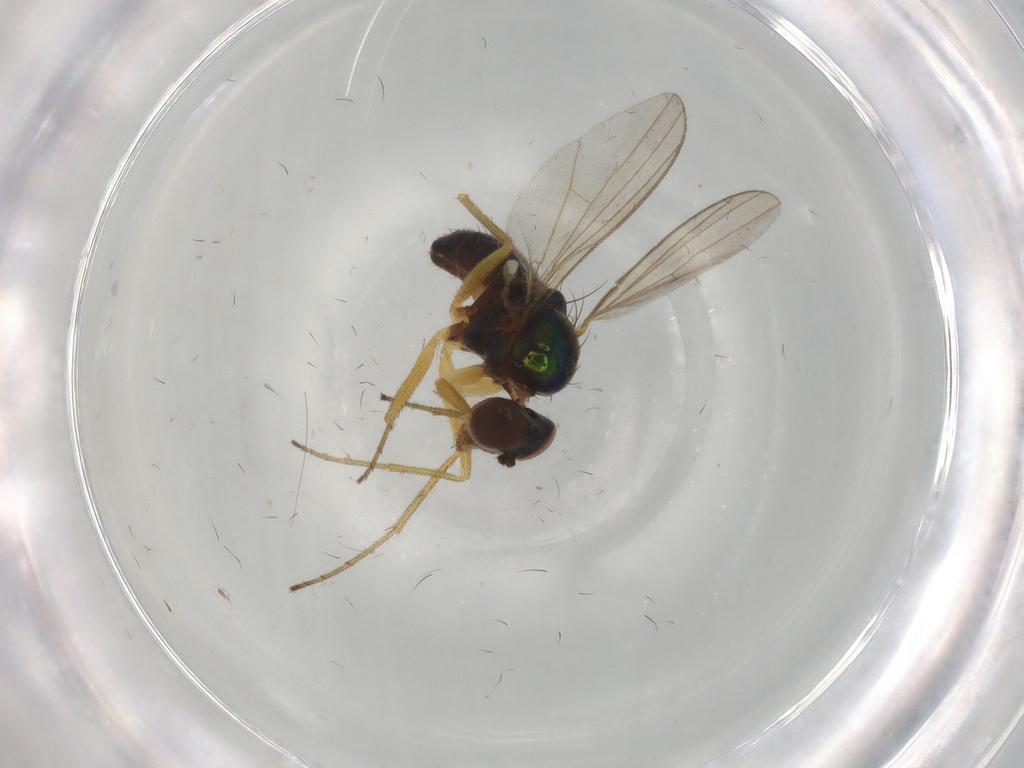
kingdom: Animalia
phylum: Arthropoda
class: Insecta
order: Diptera
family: Dolichopodidae
